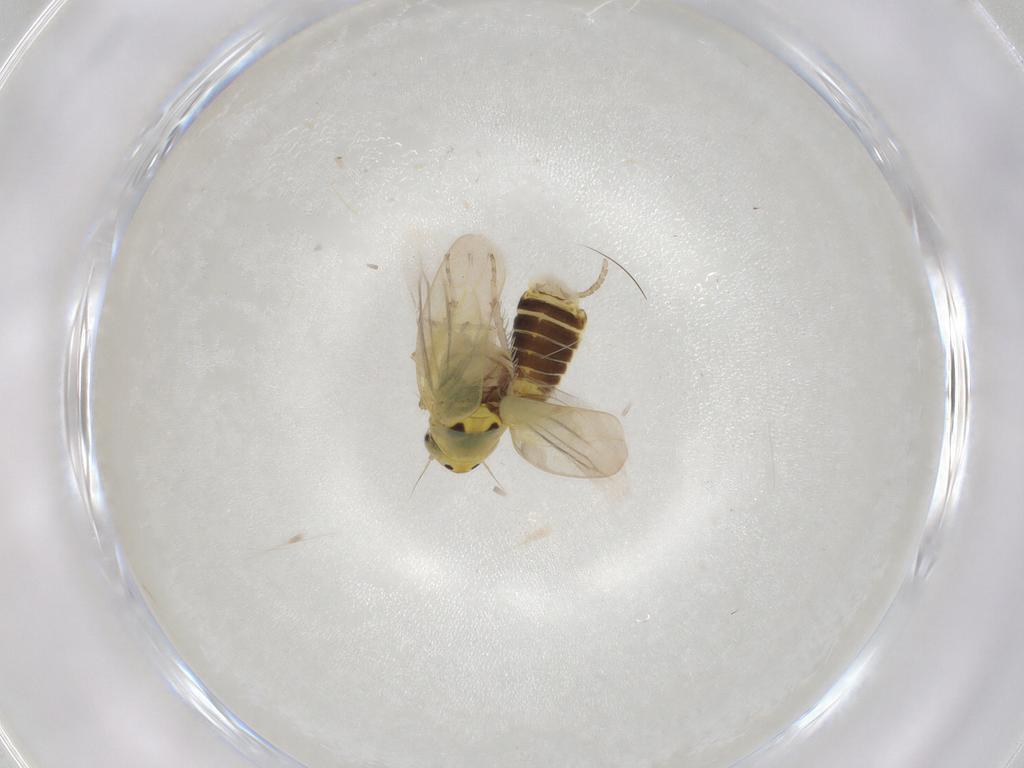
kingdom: Animalia
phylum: Arthropoda
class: Insecta
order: Hemiptera
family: Cicadellidae
